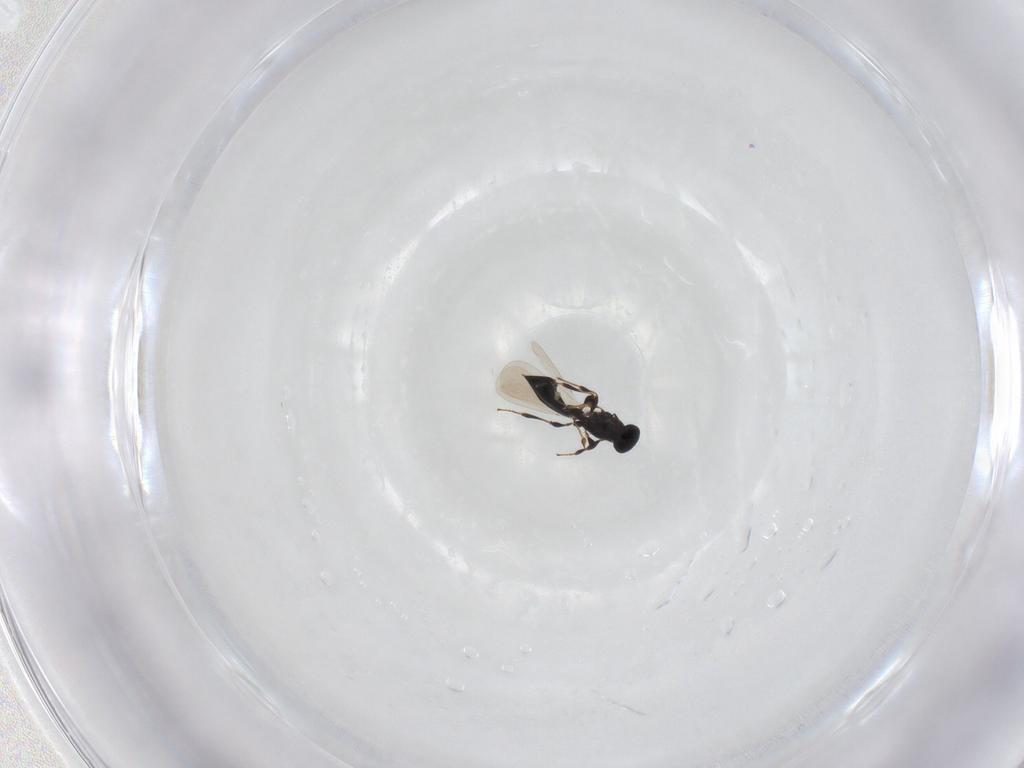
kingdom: Animalia
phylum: Arthropoda
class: Insecta
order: Hymenoptera
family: Platygastridae
